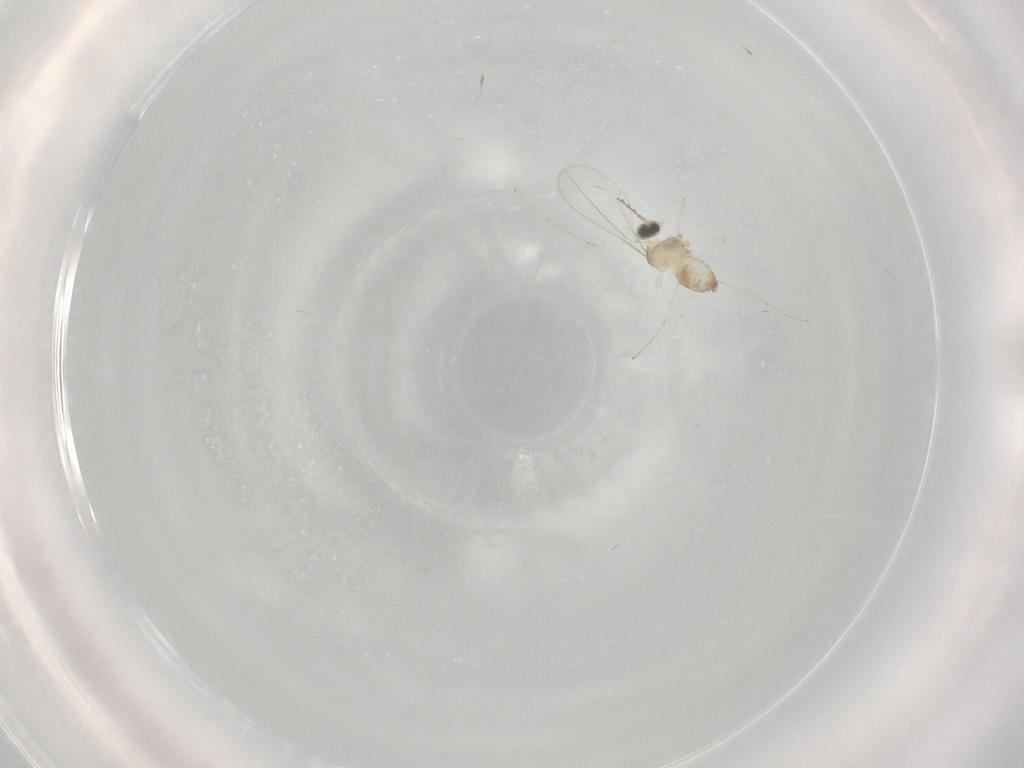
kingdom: Animalia
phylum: Arthropoda
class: Insecta
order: Diptera
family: Cecidomyiidae
